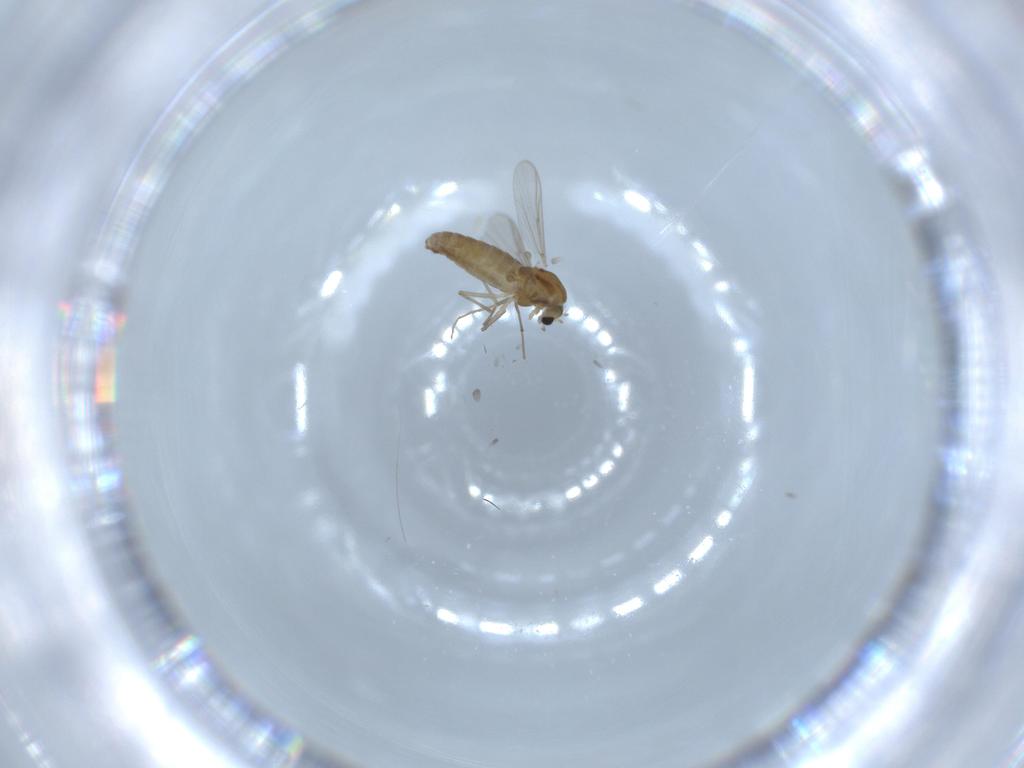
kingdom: Animalia
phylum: Arthropoda
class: Insecta
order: Diptera
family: Chironomidae
